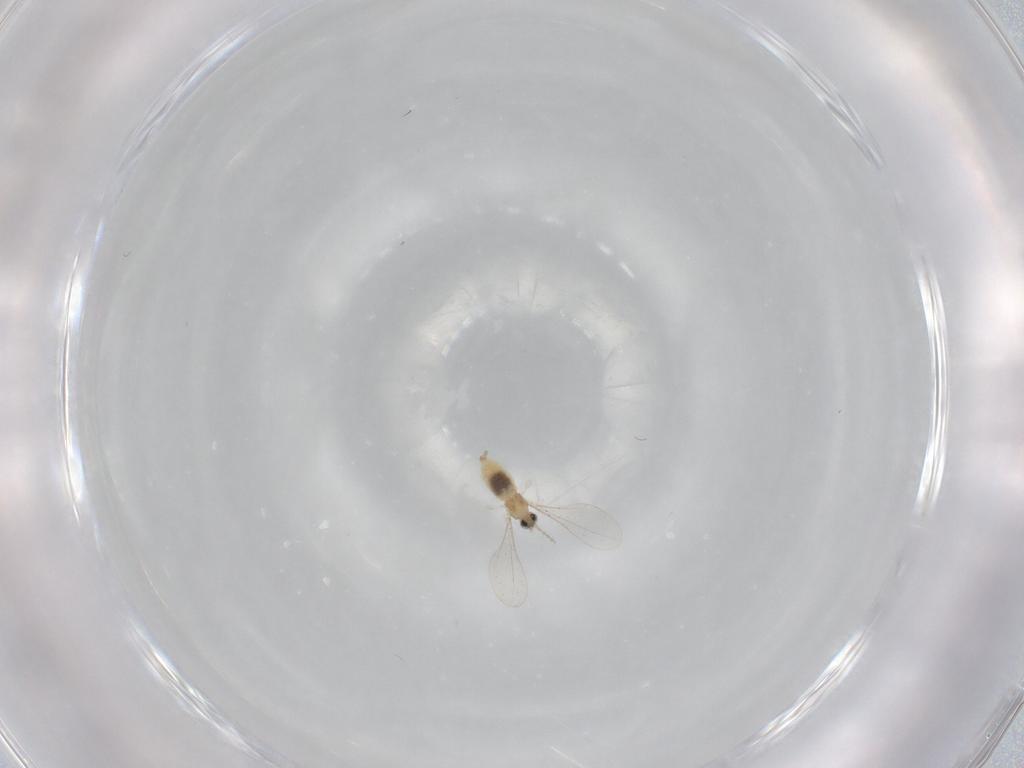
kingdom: Animalia
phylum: Arthropoda
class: Insecta
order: Diptera
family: Cecidomyiidae
